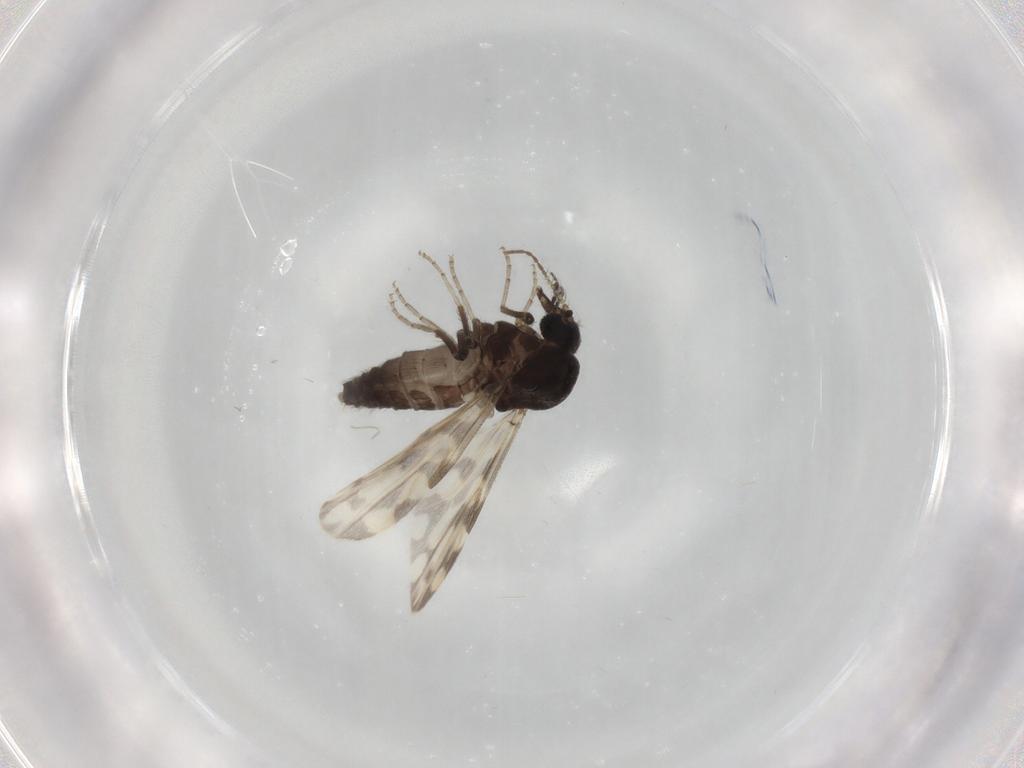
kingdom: Animalia
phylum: Arthropoda
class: Insecta
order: Diptera
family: Ceratopogonidae
